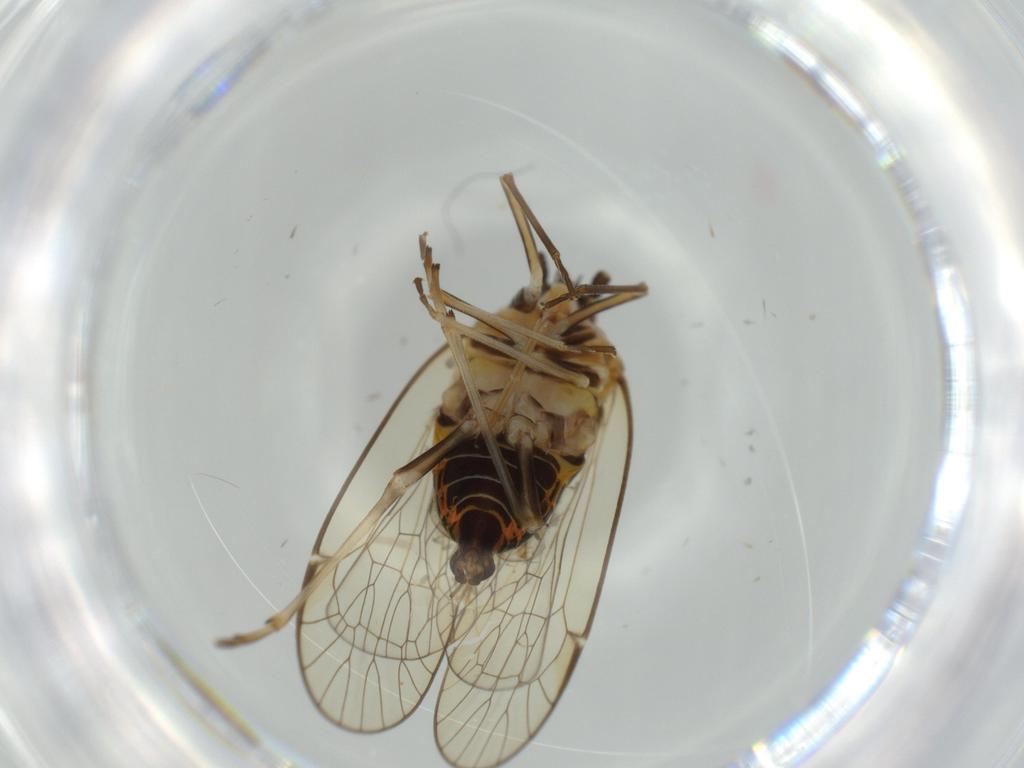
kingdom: Animalia
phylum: Arthropoda
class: Insecta
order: Hemiptera
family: Kinnaridae
